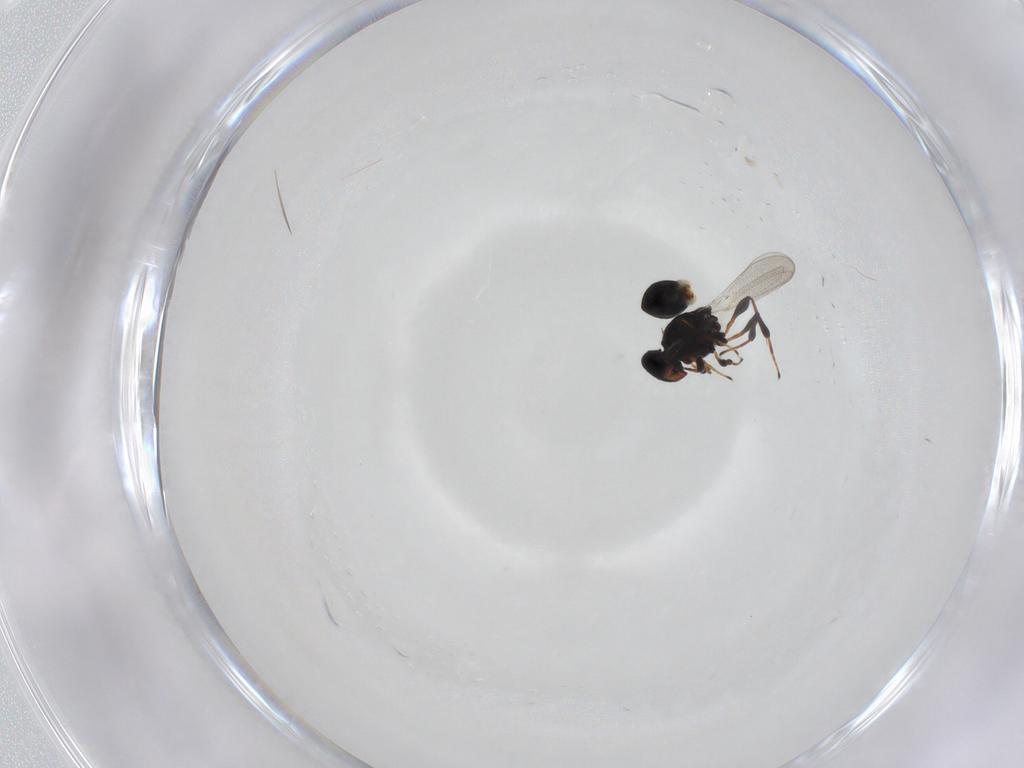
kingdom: Animalia
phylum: Arthropoda
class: Insecta
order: Hymenoptera
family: Platygastridae
